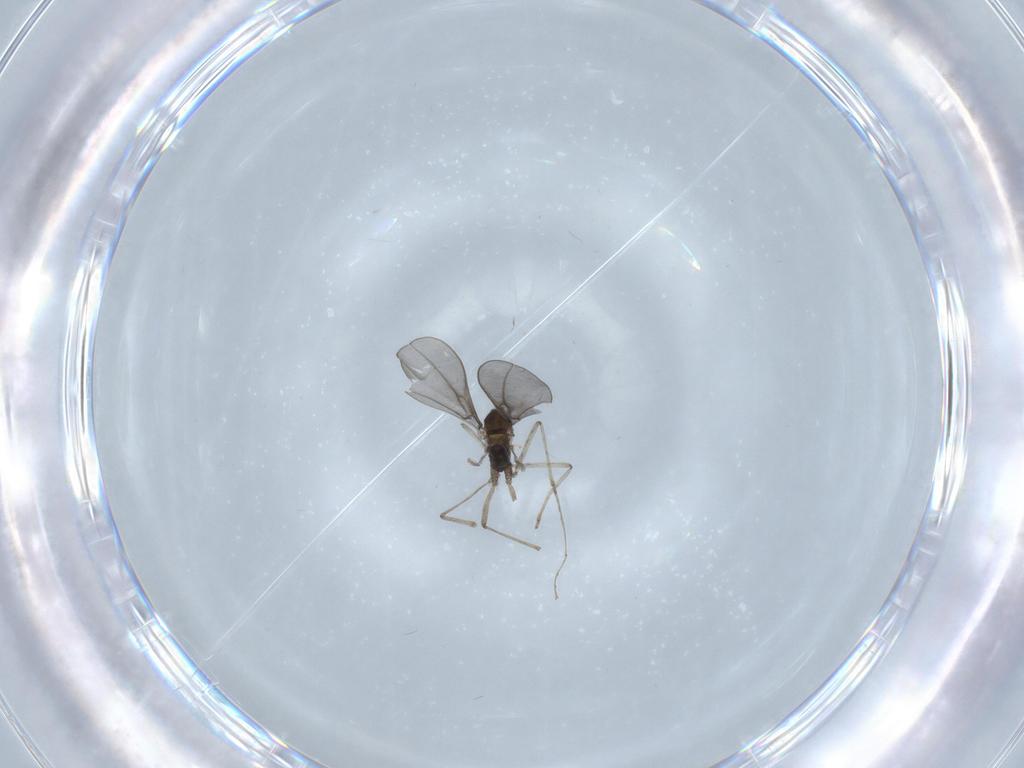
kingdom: Animalia
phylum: Arthropoda
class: Insecta
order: Diptera
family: Cecidomyiidae
